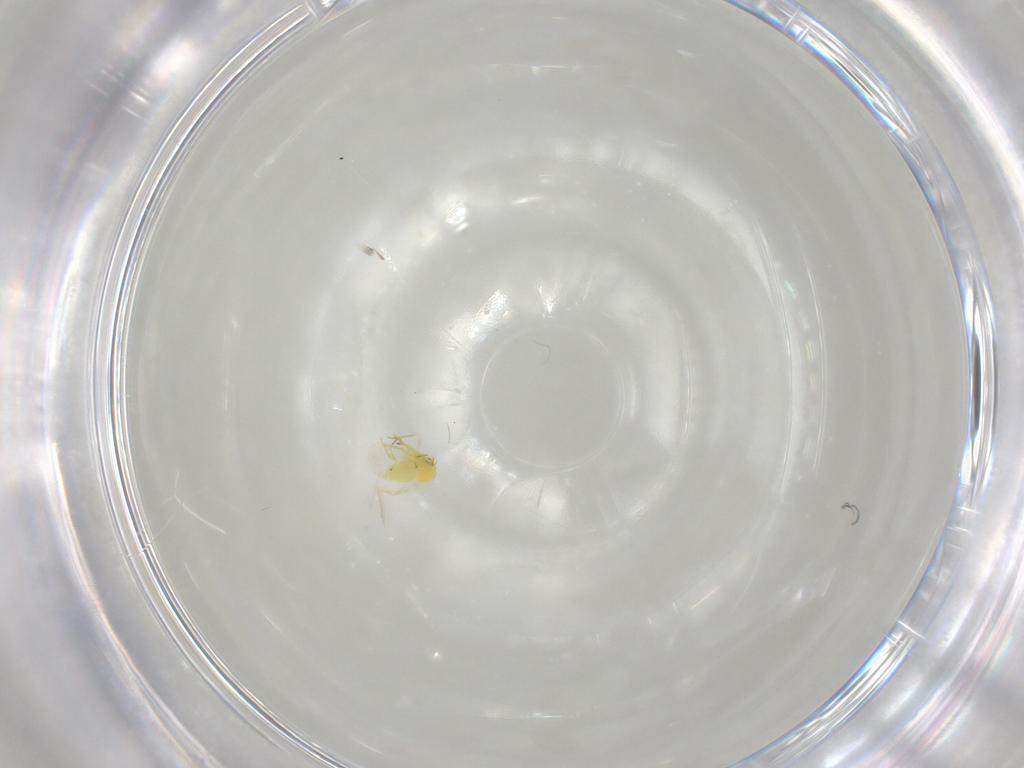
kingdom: Animalia
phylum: Arthropoda
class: Insecta
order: Hemiptera
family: Cicadellidae
